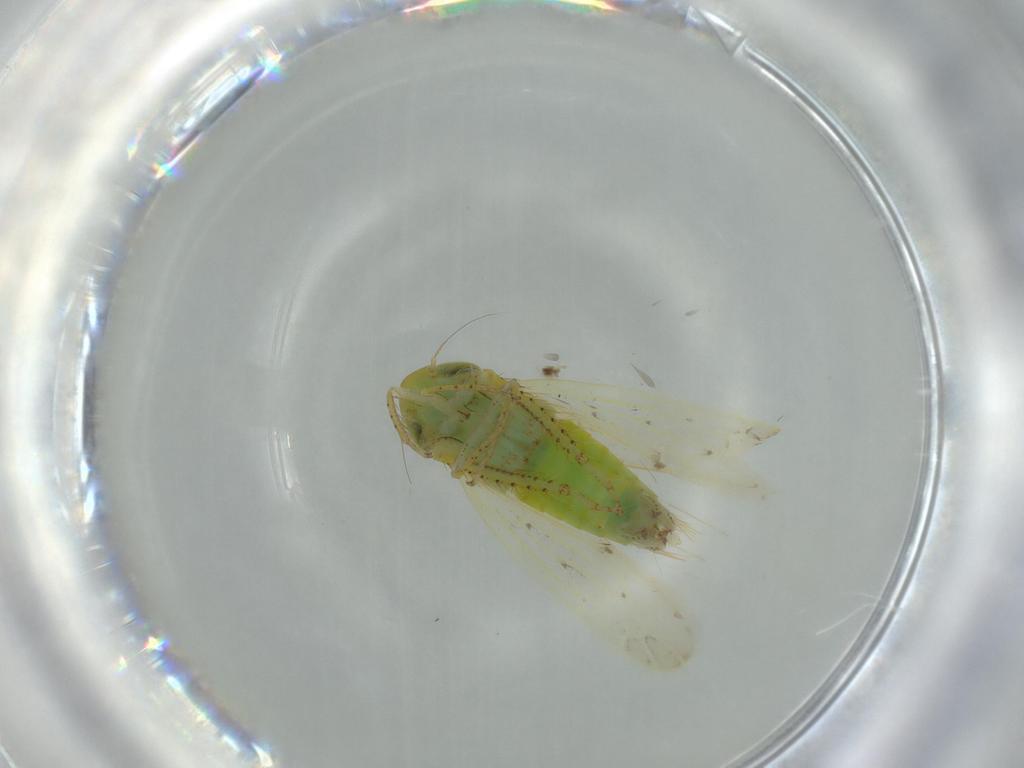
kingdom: Animalia
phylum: Arthropoda
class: Insecta
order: Hemiptera
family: Cicadellidae
